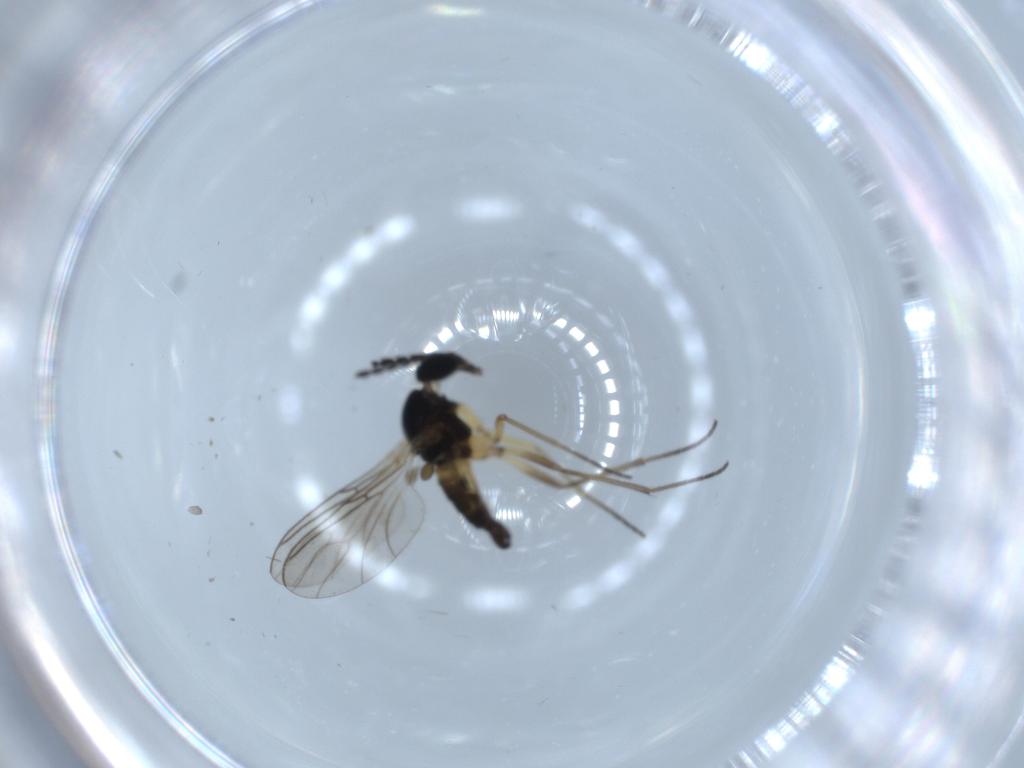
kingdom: Animalia
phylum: Arthropoda
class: Insecta
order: Diptera
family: Sciaridae
